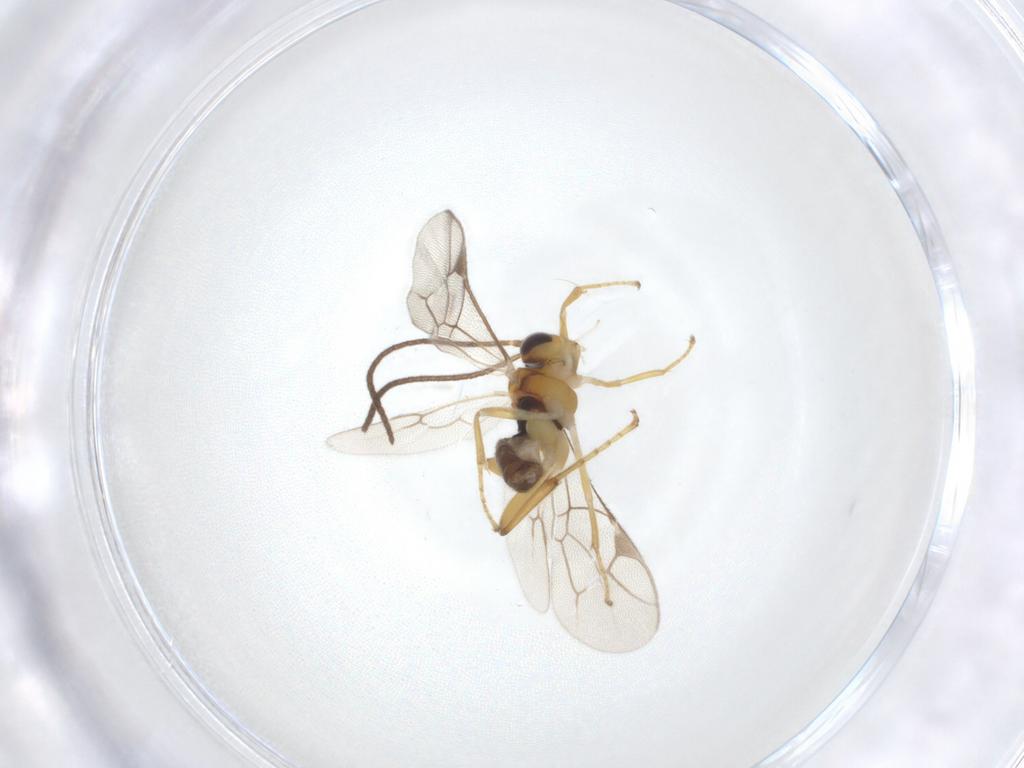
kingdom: Animalia
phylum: Arthropoda
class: Insecta
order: Hymenoptera
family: Ichneumonidae
